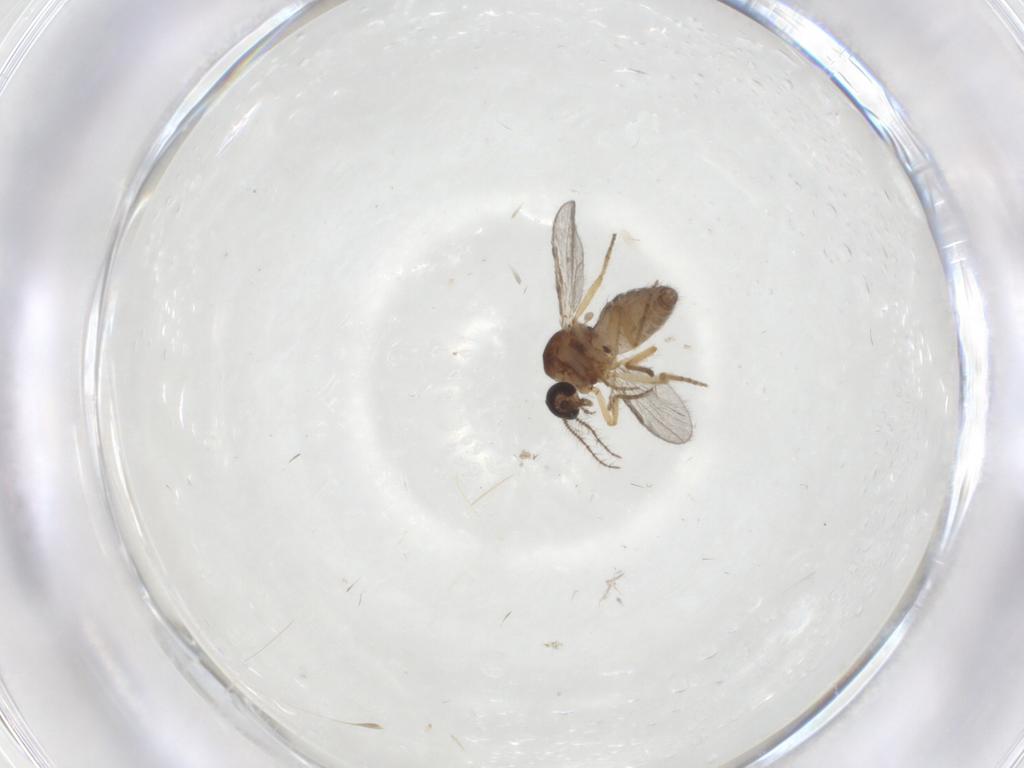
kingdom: Animalia
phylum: Arthropoda
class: Insecta
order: Diptera
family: Ceratopogonidae
